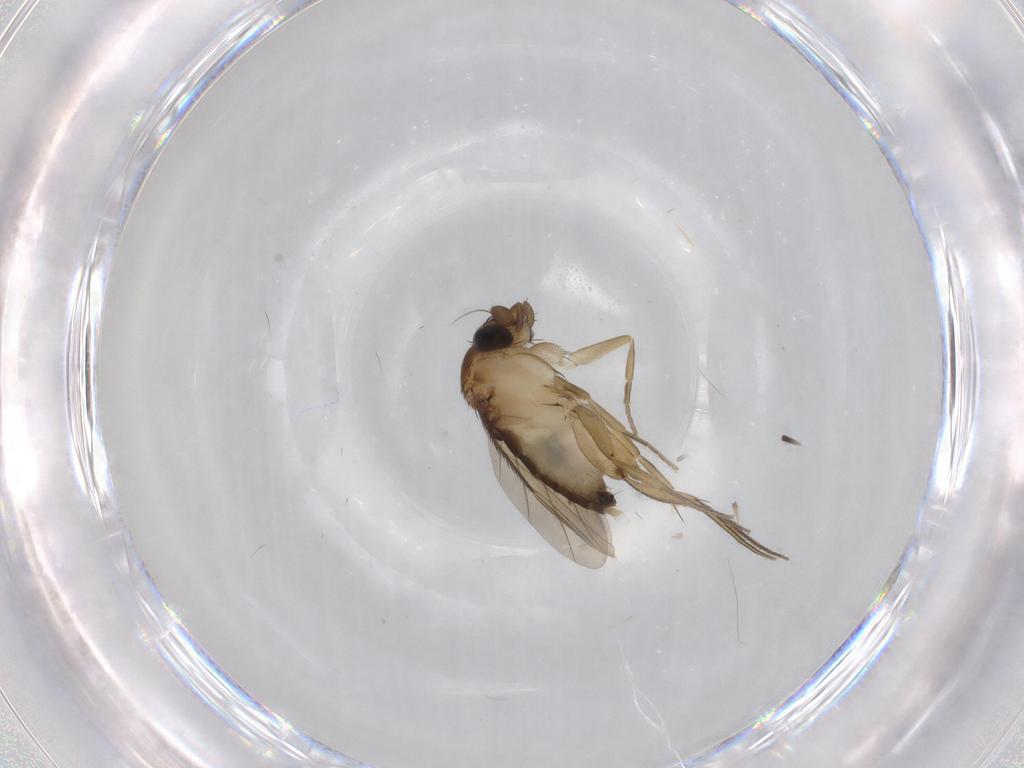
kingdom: Animalia
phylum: Arthropoda
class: Insecta
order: Diptera
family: Phoridae
